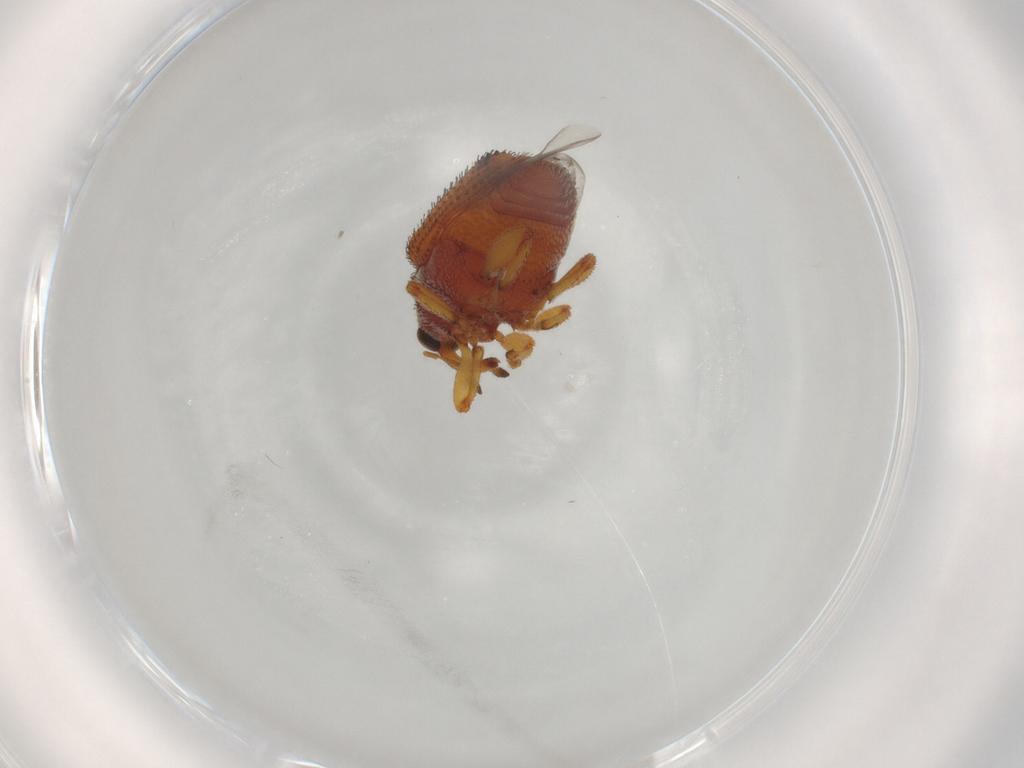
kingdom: Animalia
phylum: Arthropoda
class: Insecta
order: Coleoptera
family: Curculionidae
